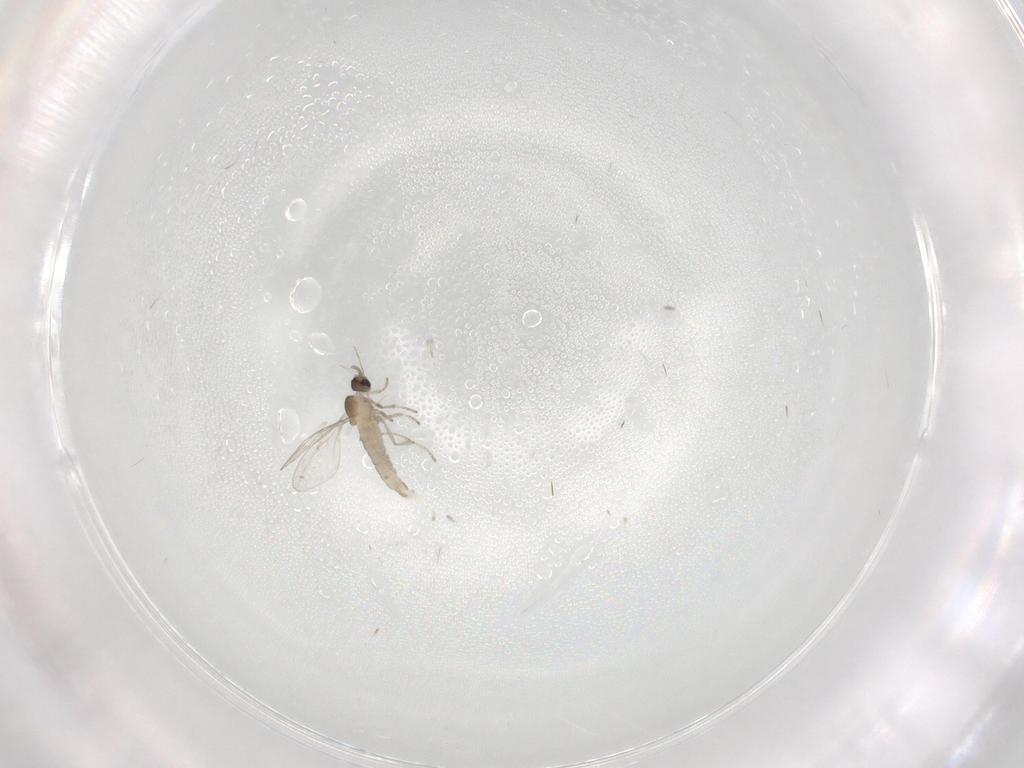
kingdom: Animalia
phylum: Arthropoda
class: Insecta
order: Diptera
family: Cecidomyiidae
